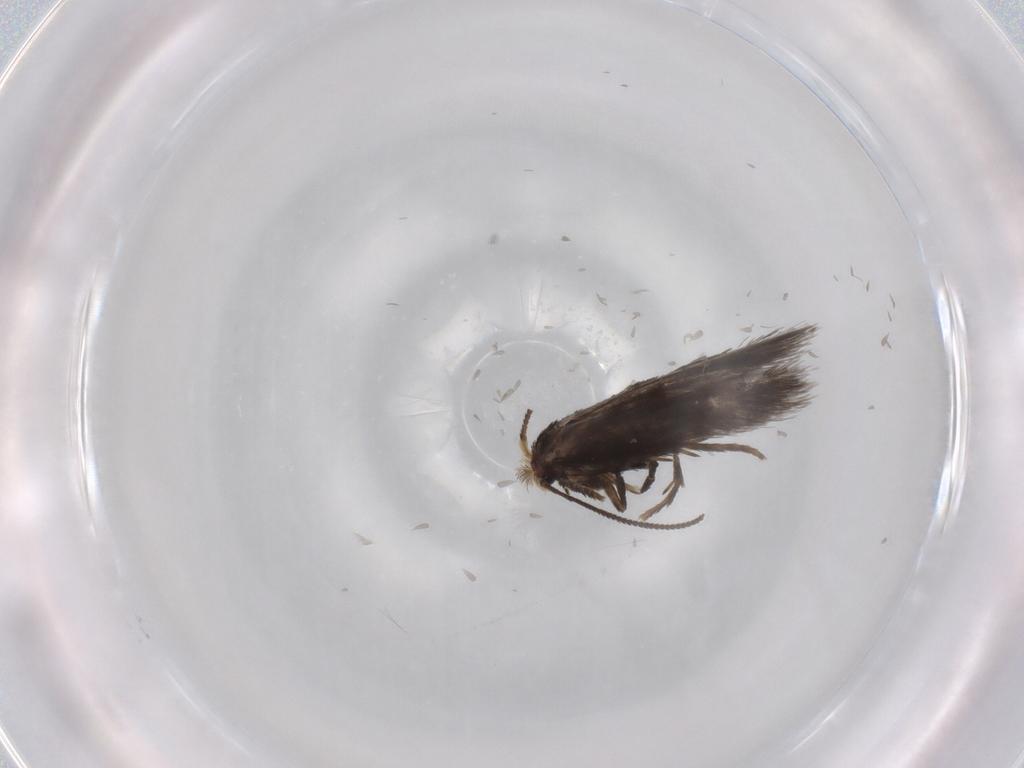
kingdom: Animalia
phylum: Arthropoda
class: Insecta
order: Lepidoptera
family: Nepticulidae
